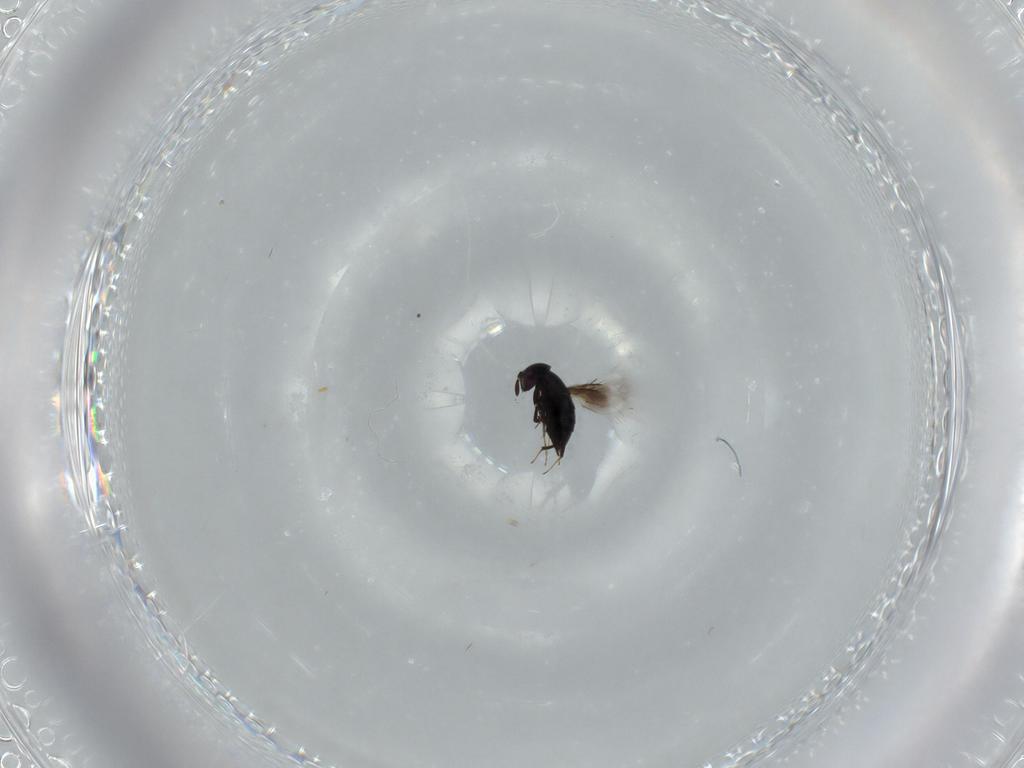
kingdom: Animalia
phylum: Arthropoda
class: Insecta
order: Hymenoptera
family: Signiphoridae
